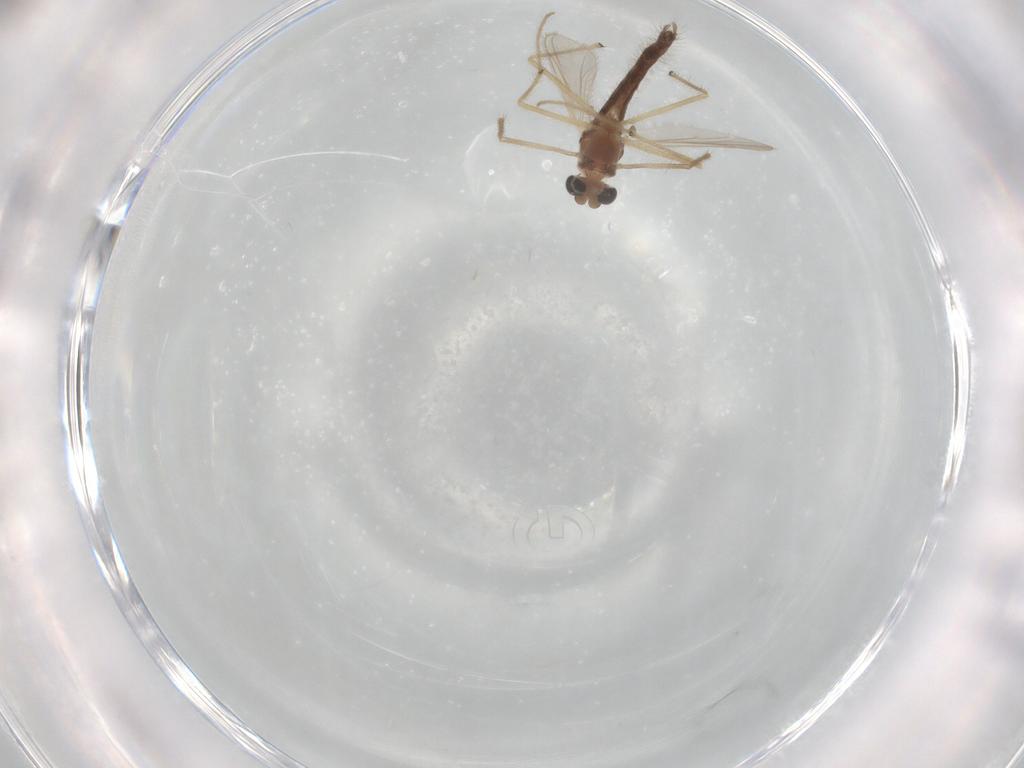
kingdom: Animalia
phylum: Arthropoda
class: Insecta
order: Diptera
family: Chironomidae
